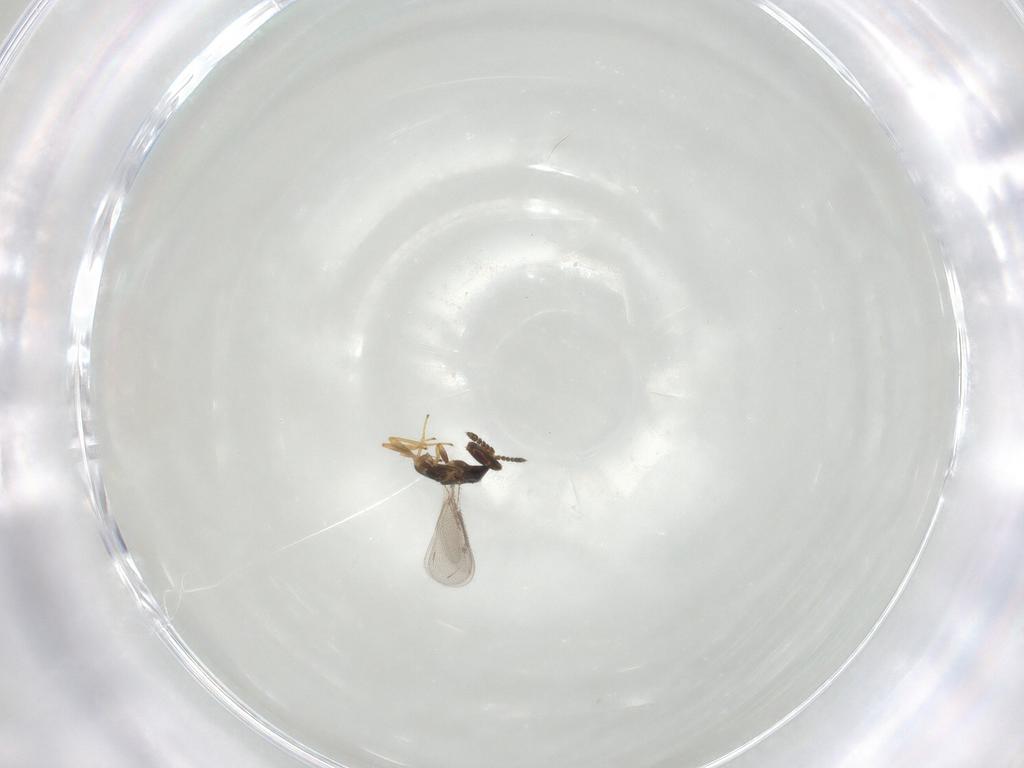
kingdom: Animalia
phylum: Arthropoda
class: Insecta
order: Hymenoptera
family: Eulophidae
